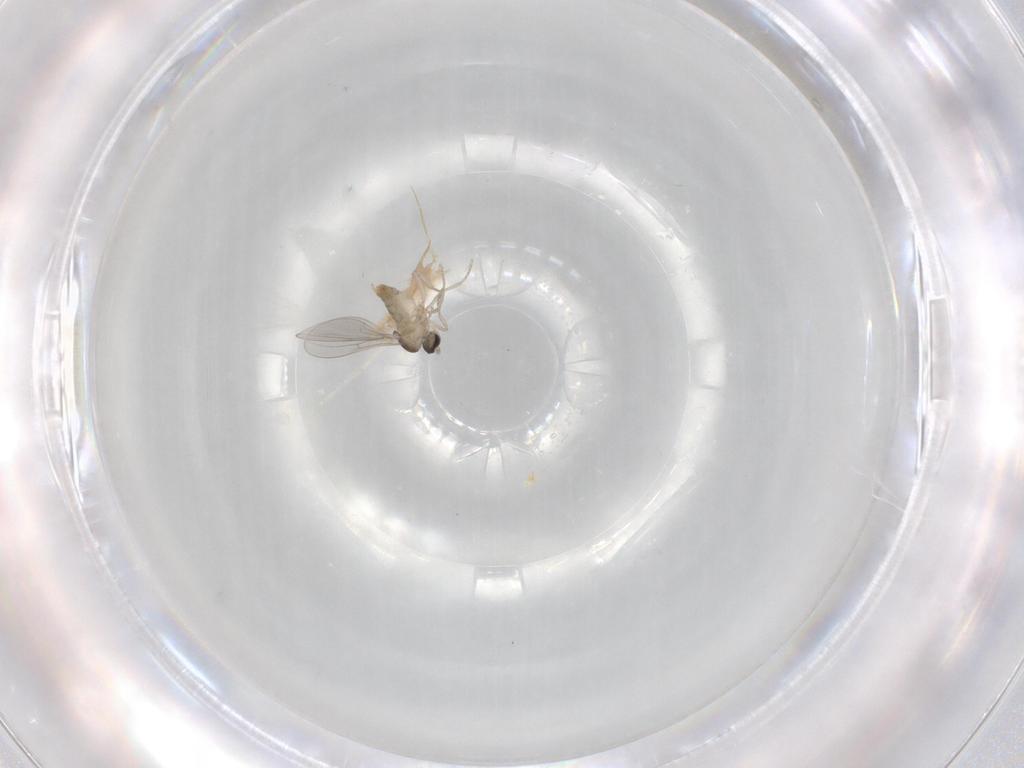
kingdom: Animalia
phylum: Arthropoda
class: Insecta
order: Diptera
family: Cecidomyiidae
